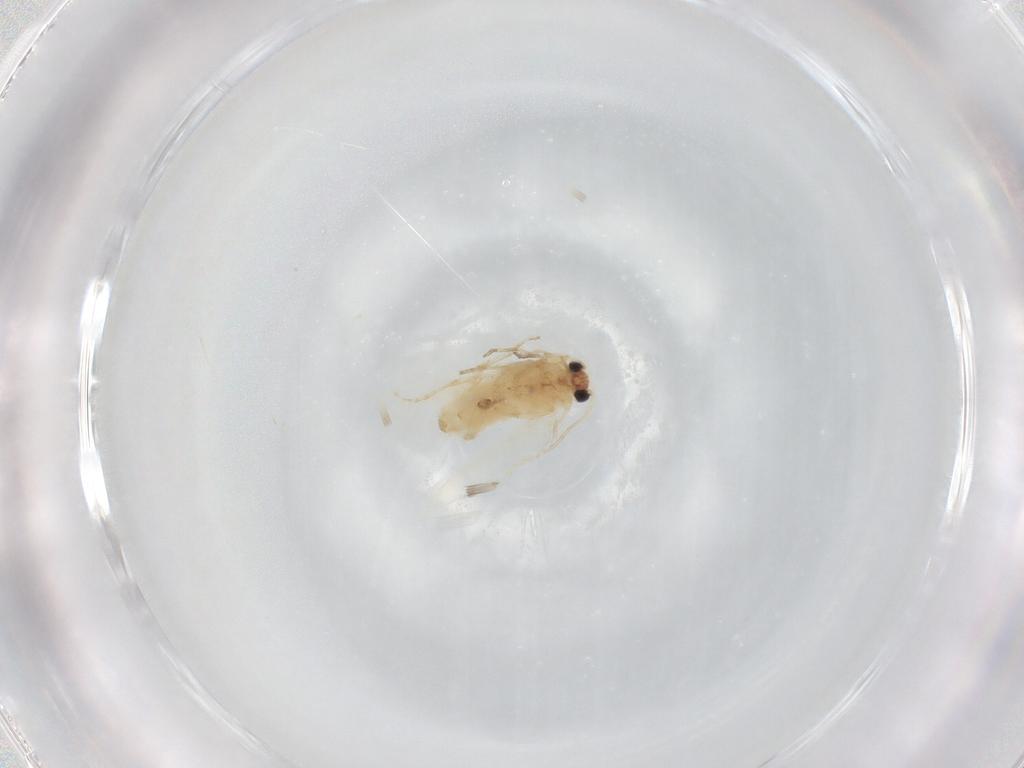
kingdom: Animalia
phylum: Arthropoda
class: Insecta
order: Lepidoptera
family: Nepticulidae
